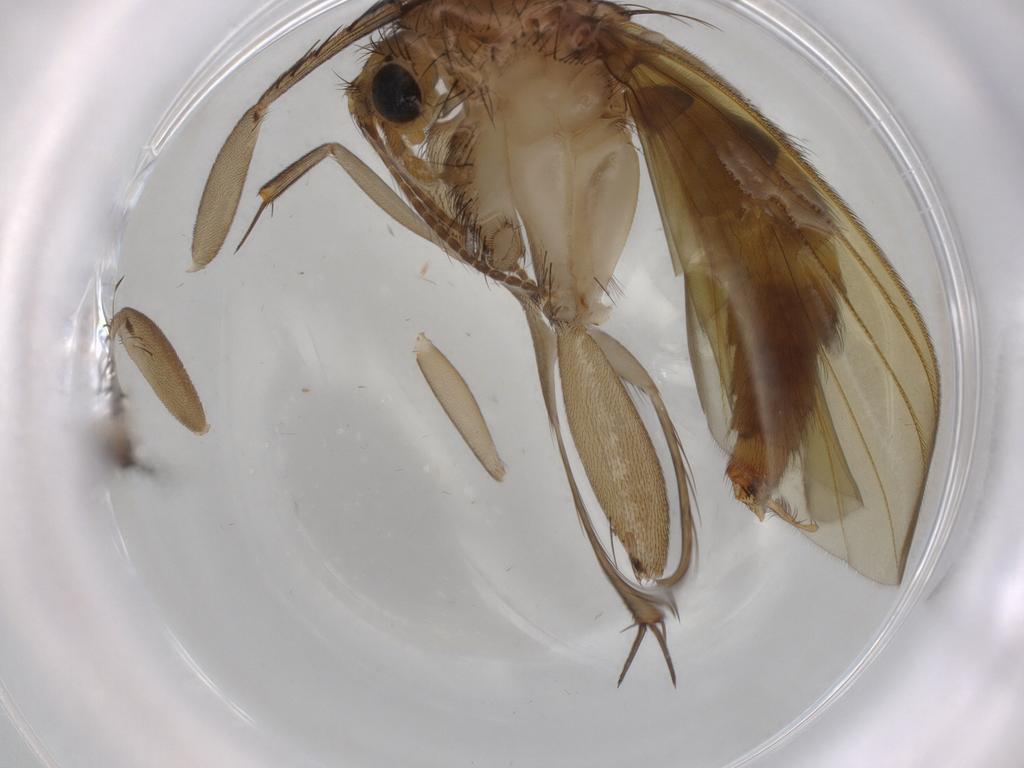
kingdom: Animalia
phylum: Arthropoda
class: Insecta
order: Diptera
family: Mycetophilidae
